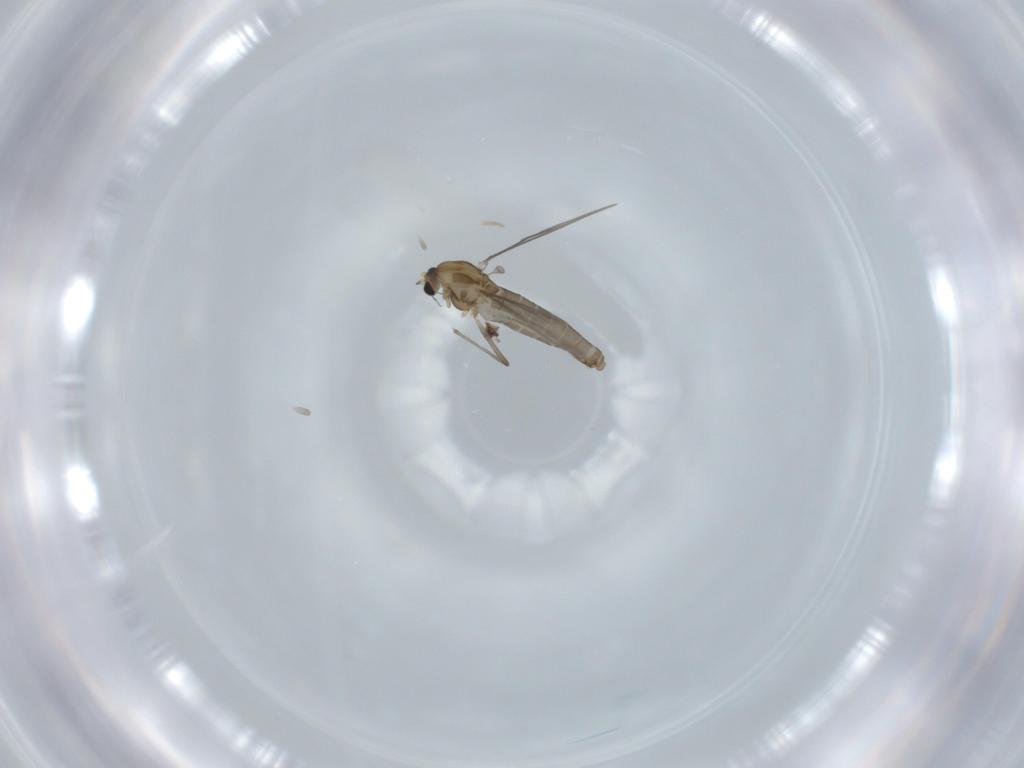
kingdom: Animalia
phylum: Arthropoda
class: Insecta
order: Diptera
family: Chironomidae
